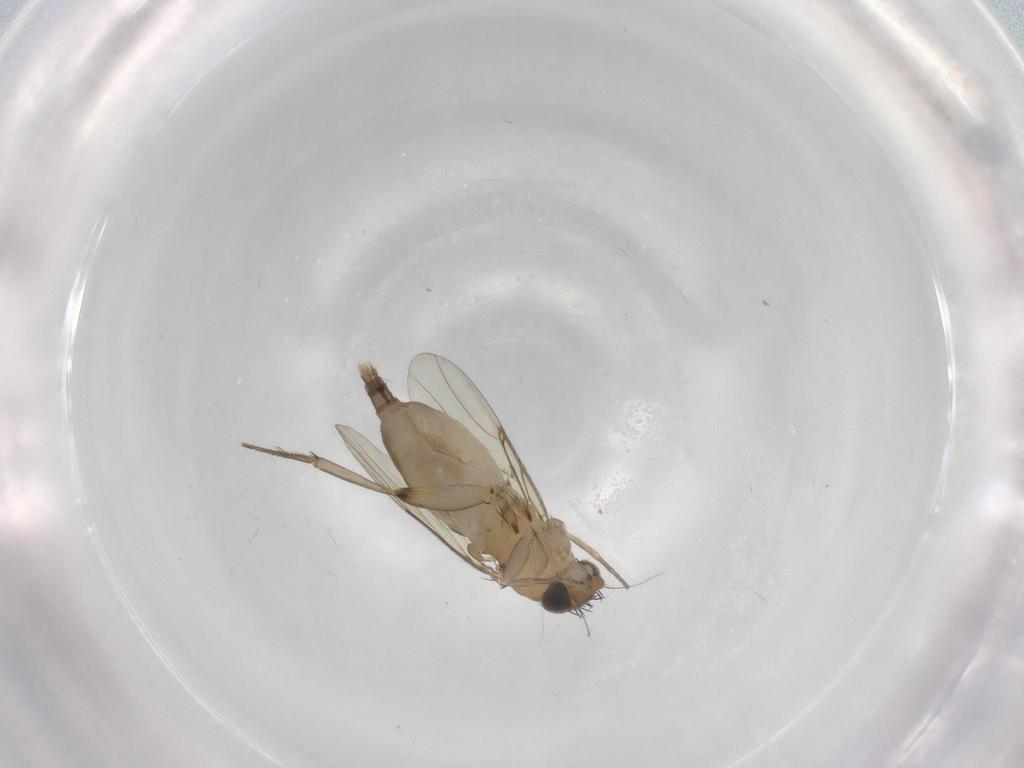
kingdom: Animalia
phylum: Arthropoda
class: Insecta
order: Diptera
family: Phoridae
